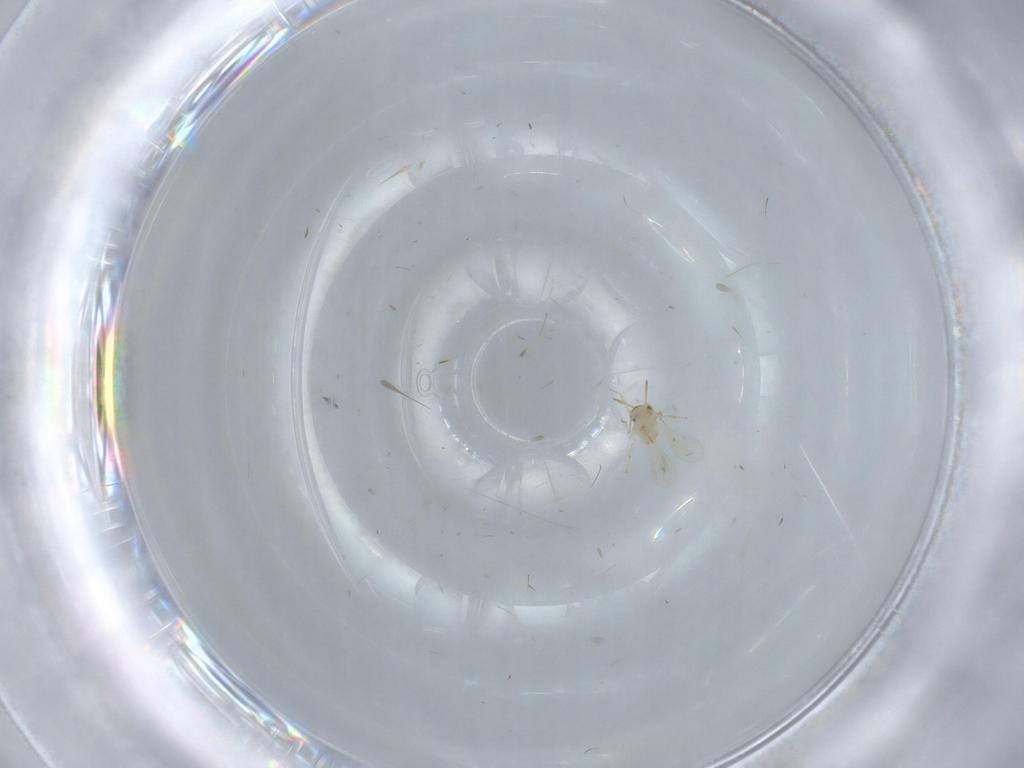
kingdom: Animalia
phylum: Arthropoda
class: Insecta
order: Hymenoptera
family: Aphelinidae
